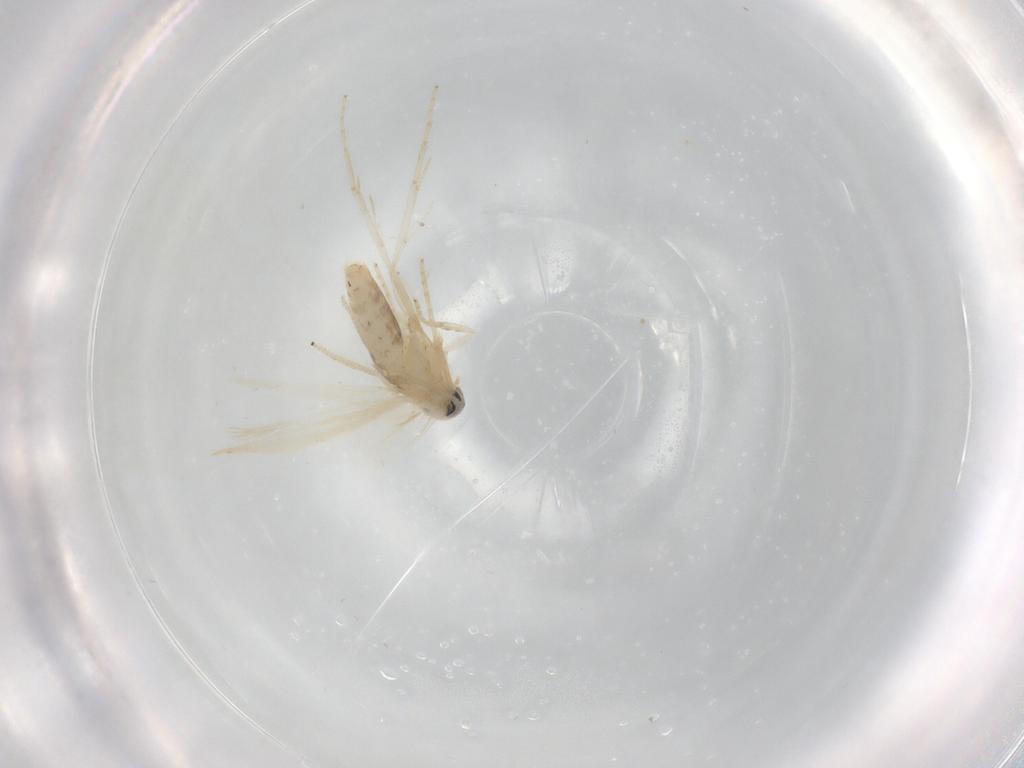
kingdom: Animalia
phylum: Arthropoda
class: Insecta
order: Lepidoptera
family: Opostegidae
